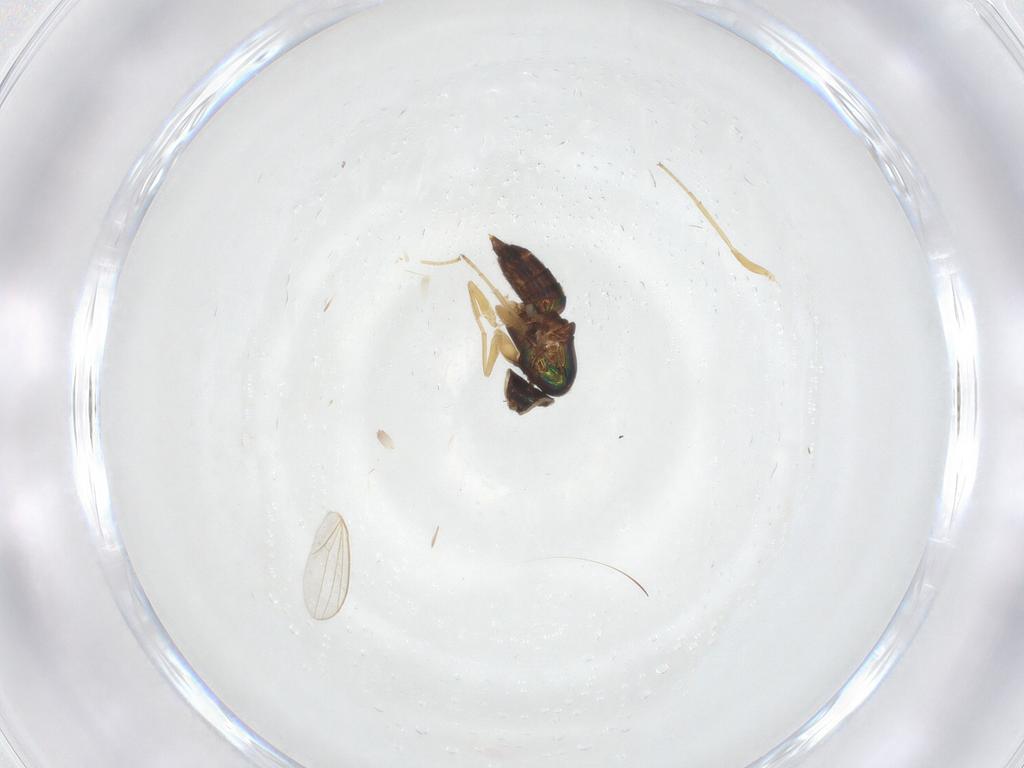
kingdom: Animalia
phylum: Arthropoda
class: Insecta
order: Diptera
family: Dolichopodidae
